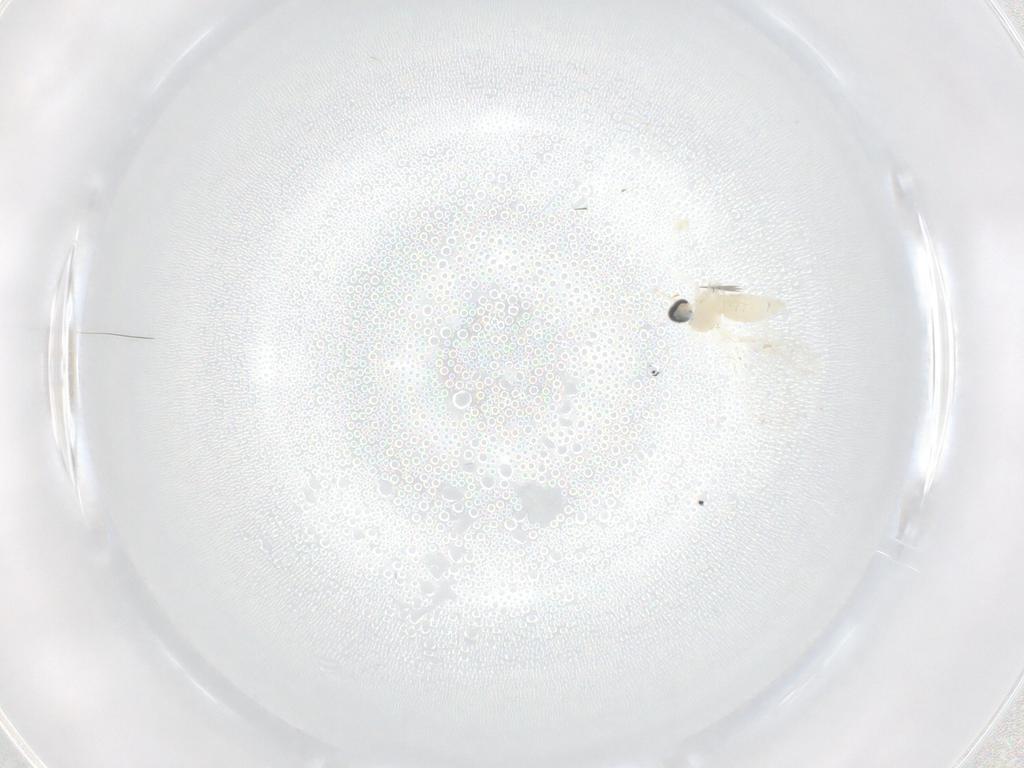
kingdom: Animalia
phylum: Arthropoda
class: Insecta
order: Diptera
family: Cecidomyiidae
